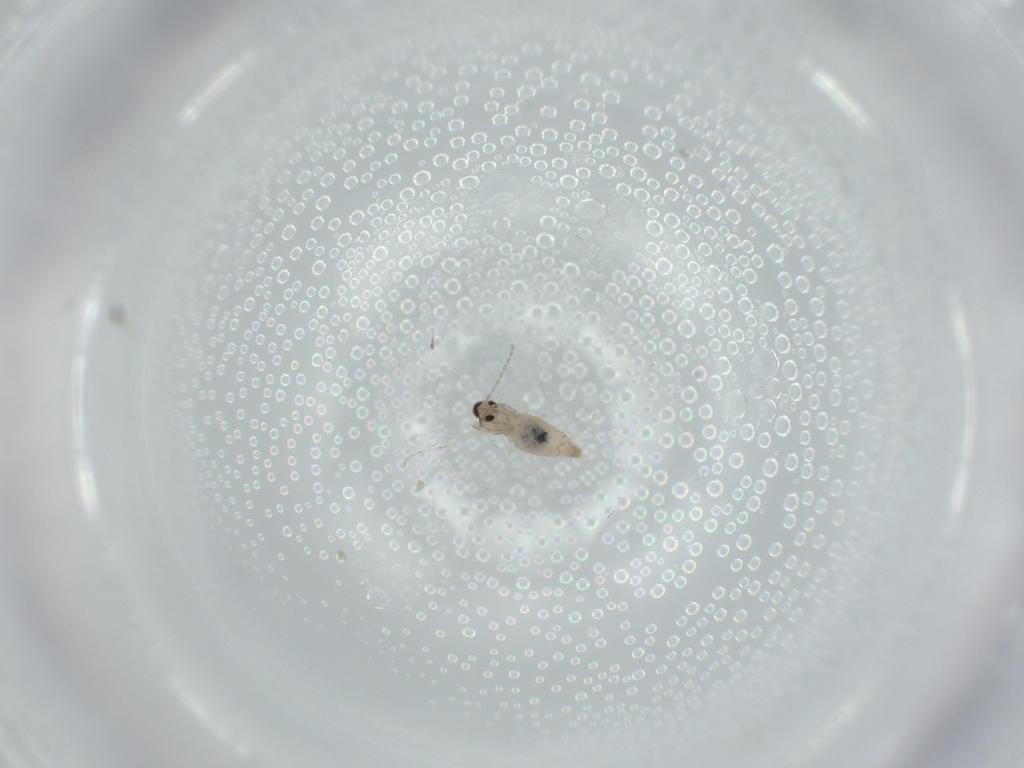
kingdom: Animalia
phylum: Arthropoda
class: Insecta
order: Diptera
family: Cecidomyiidae
